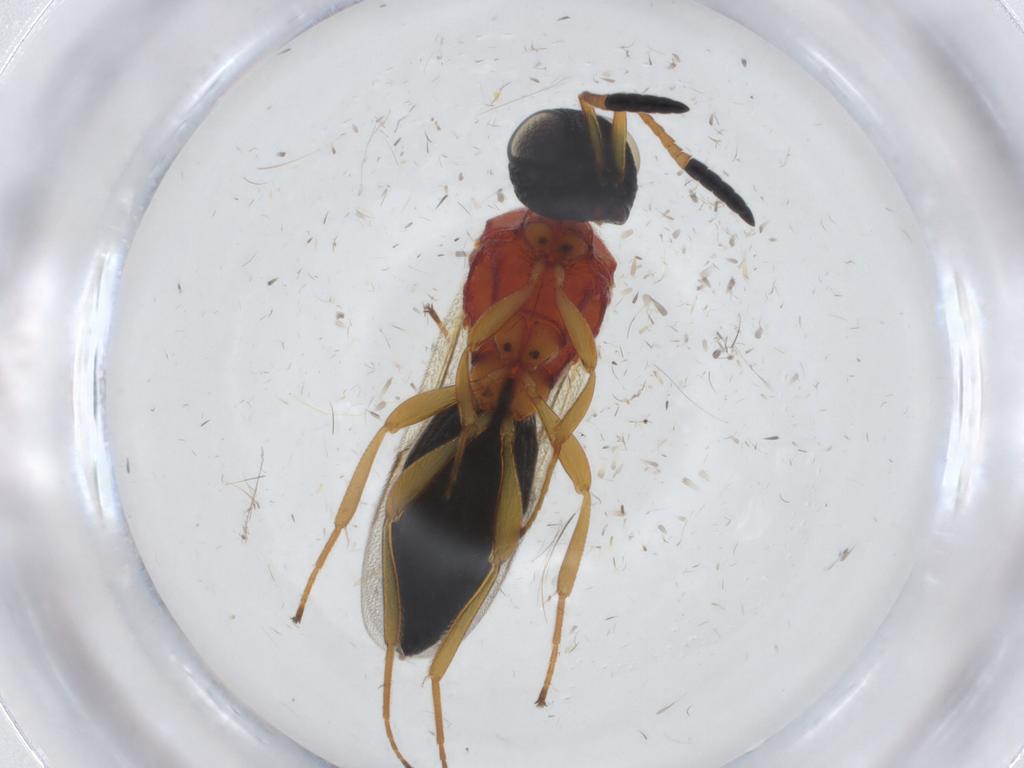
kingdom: Animalia
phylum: Arthropoda
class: Insecta
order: Hymenoptera
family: Scelionidae
